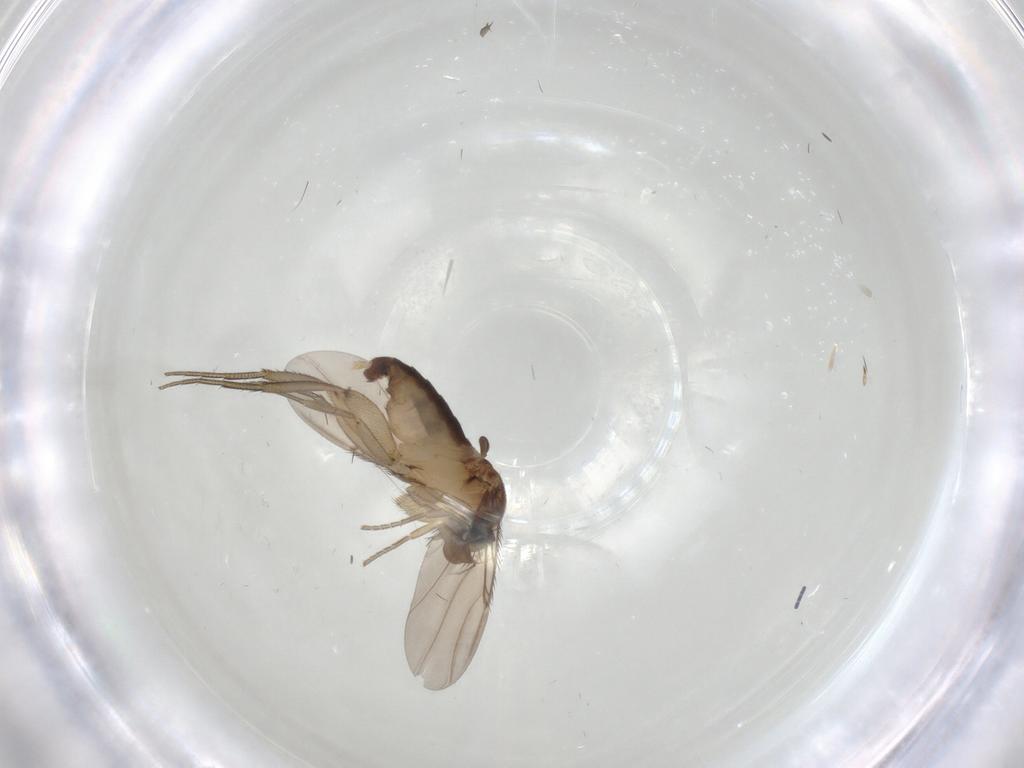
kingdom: Animalia
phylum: Arthropoda
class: Insecta
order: Diptera
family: Phoridae
